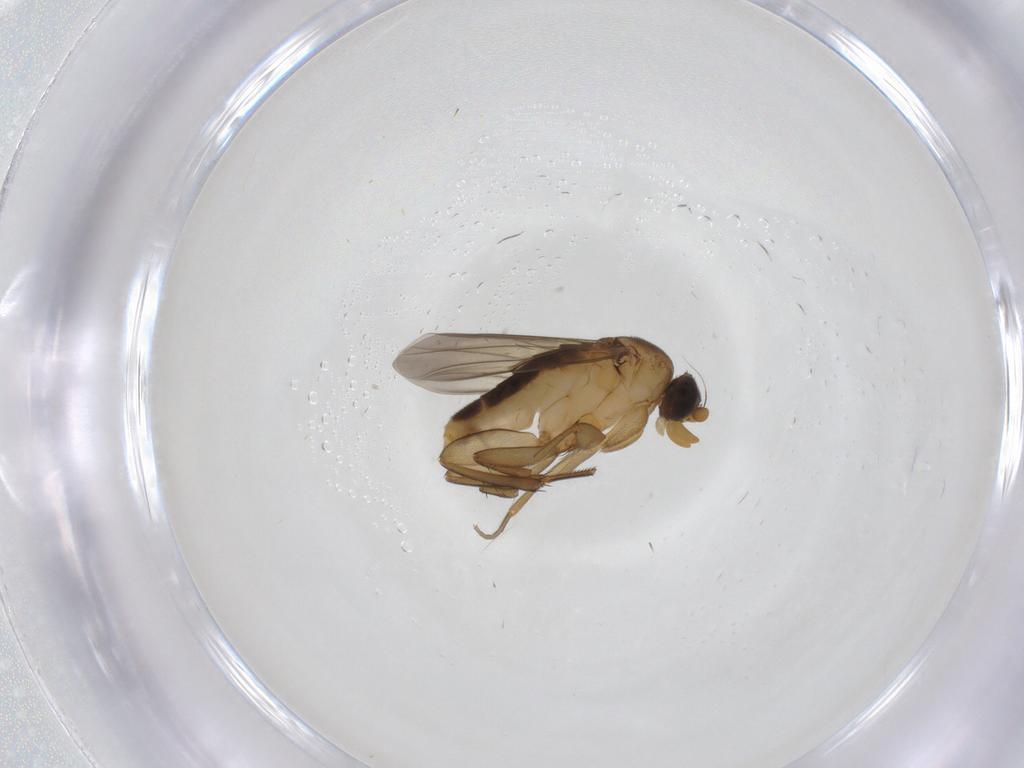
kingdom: Animalia
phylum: Arthropoda
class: Insecta
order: Diptera
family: Phoridae
